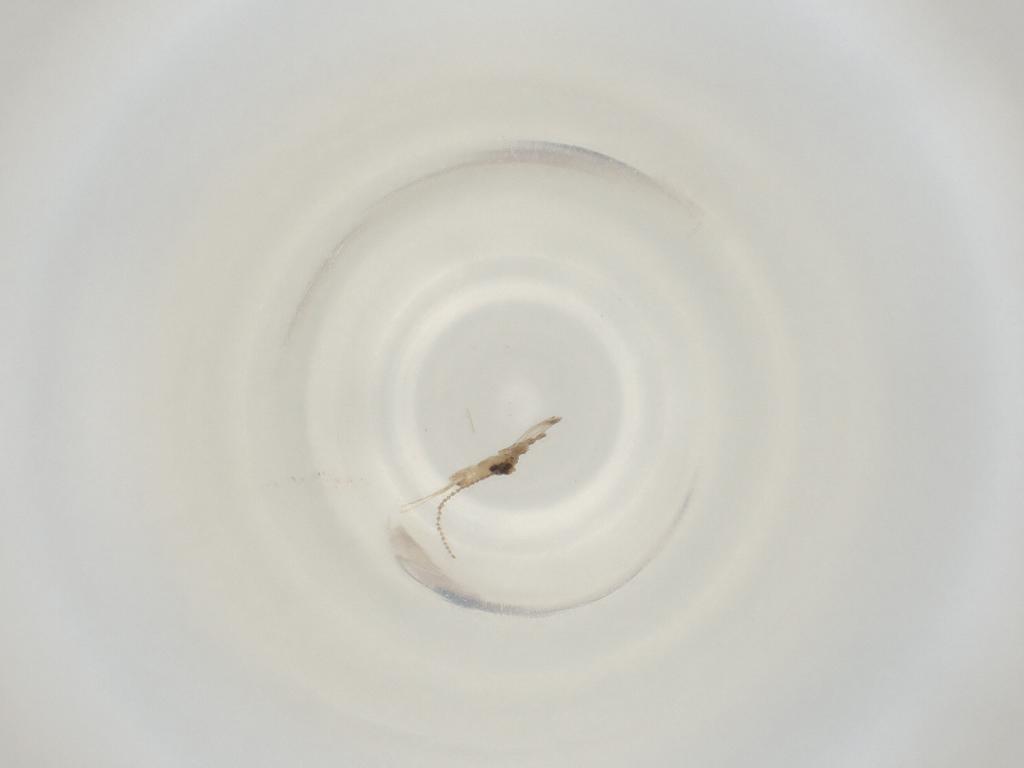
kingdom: Animalia
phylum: Arthropoda
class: Insecta
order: Diptera
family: Cecidomyiidae
